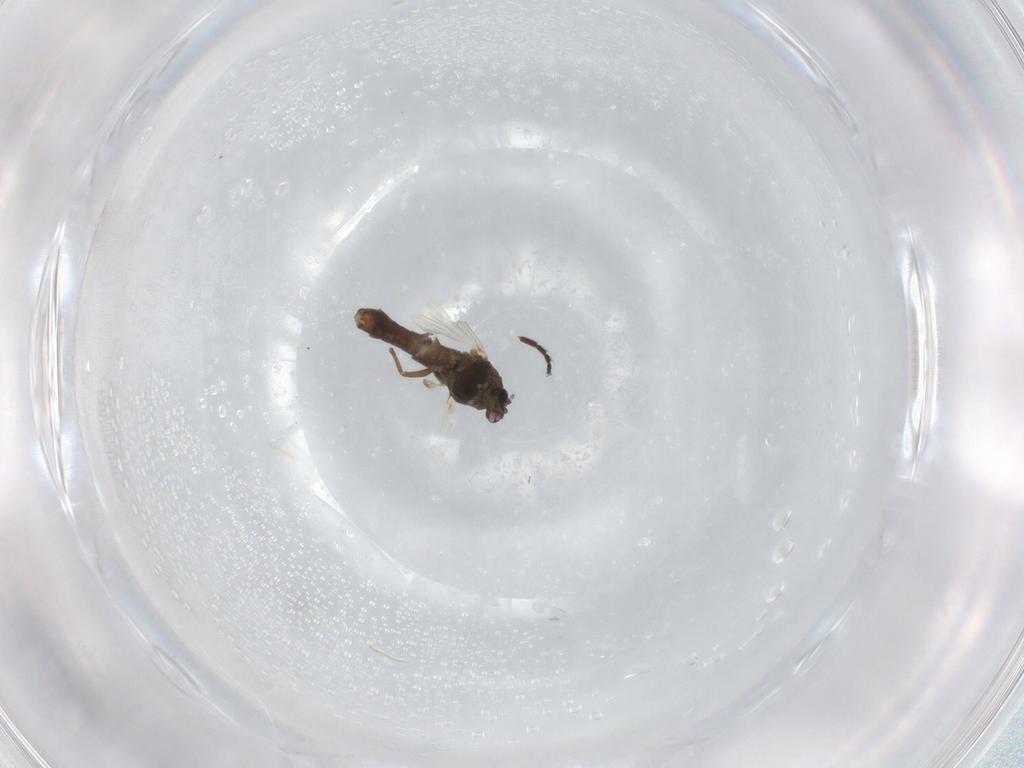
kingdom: Animalia
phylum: Arthropoda
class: Insecta
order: Diptera
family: Chironomidae
